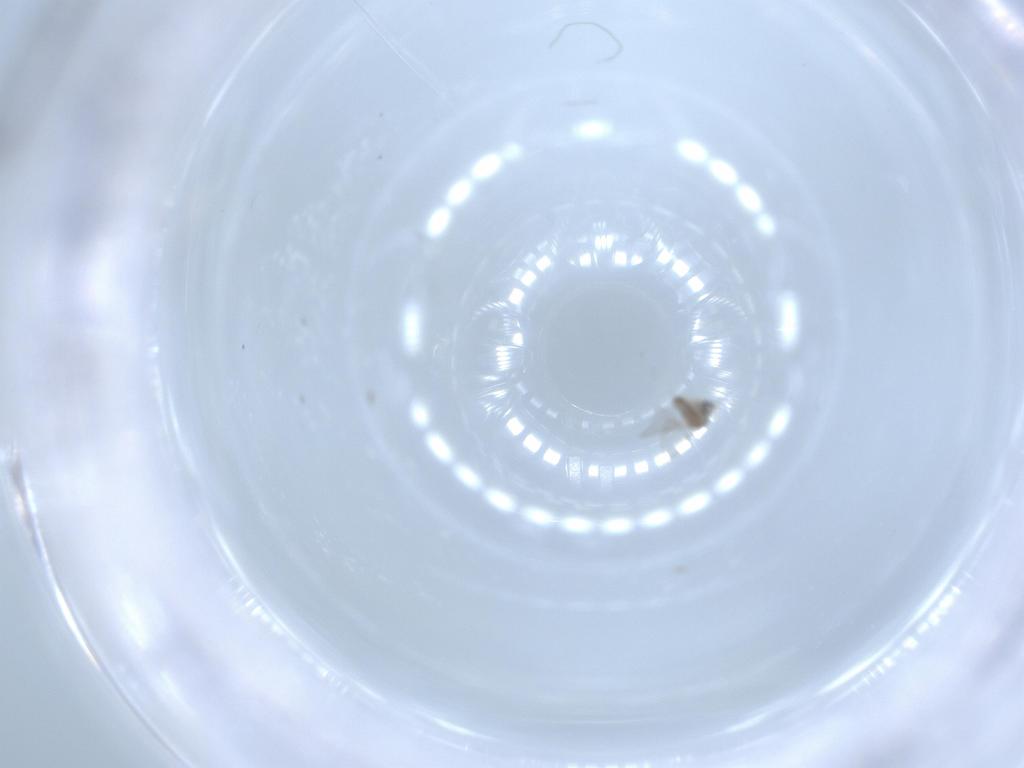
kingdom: Animalia
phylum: Arthropoda
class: Insecta
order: Diptera
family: Cecidomyiidae
